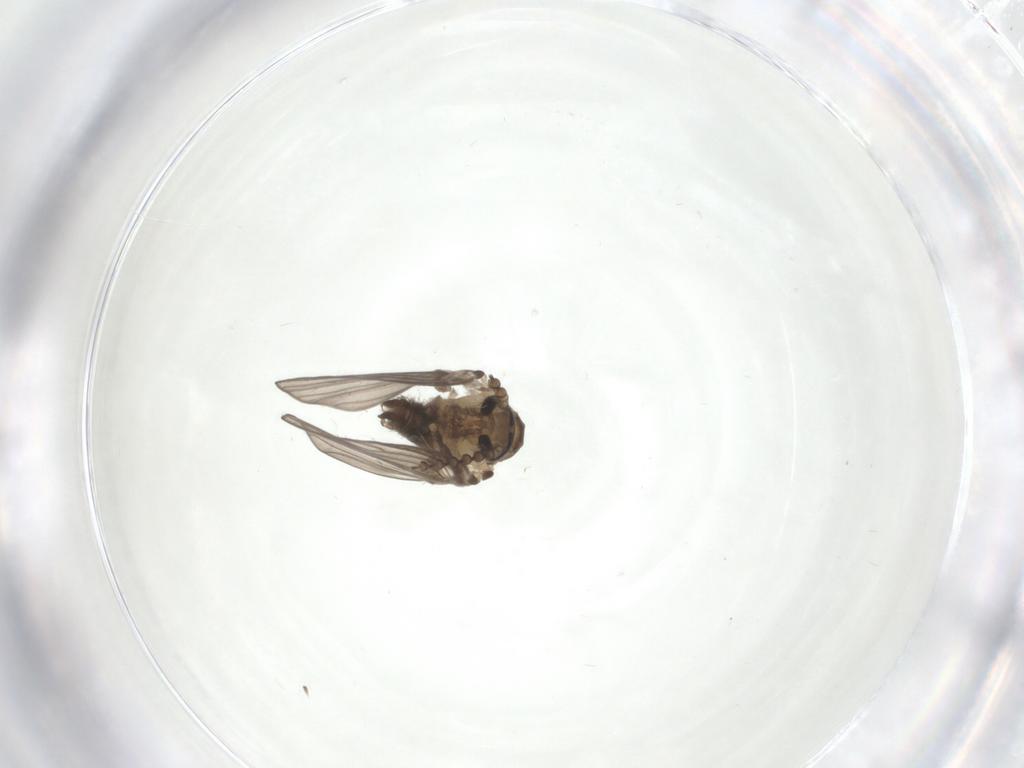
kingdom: Animalia
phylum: Arthropoda
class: Insecta
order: Diptera
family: Psychodidae
